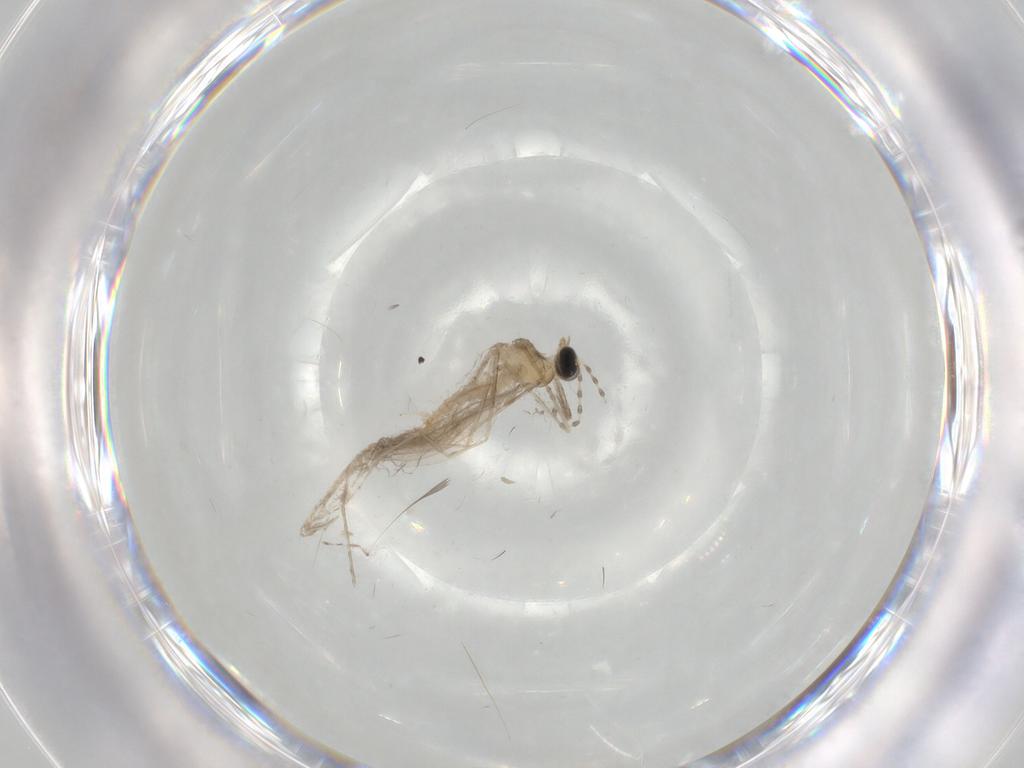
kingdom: Animalia
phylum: Arthropoda
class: Insecta
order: Diptera
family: Cecidomyiidae
